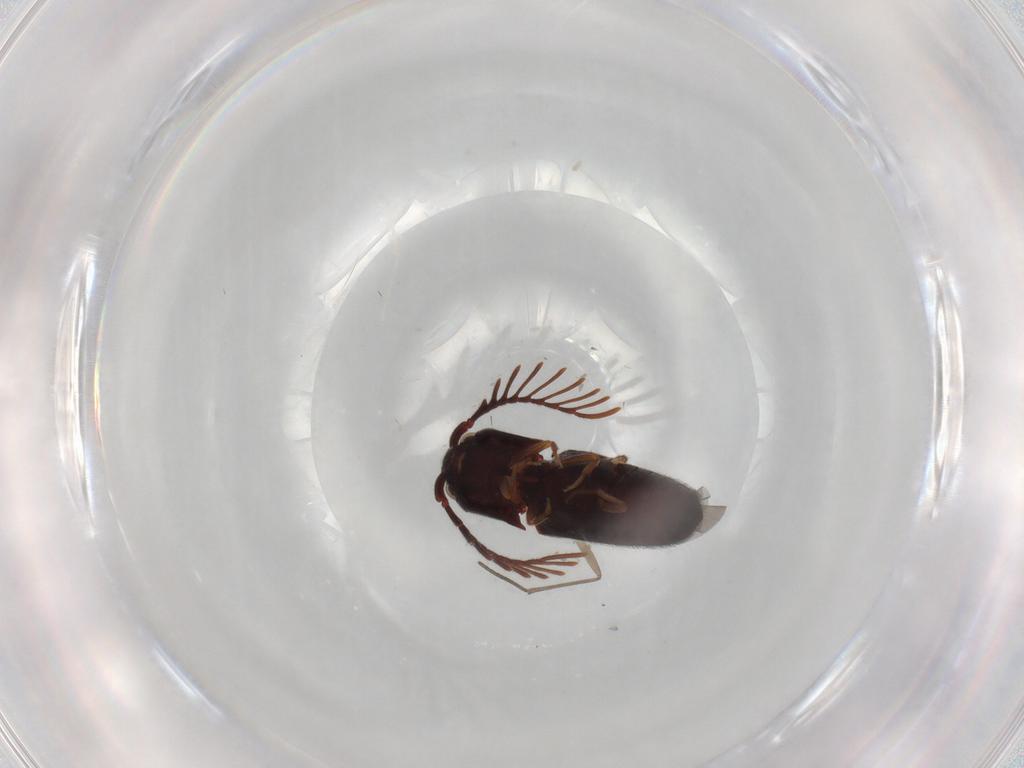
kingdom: Animalia
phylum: Arthropoda
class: Insecta
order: Coleoptera
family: Eucnemidae
